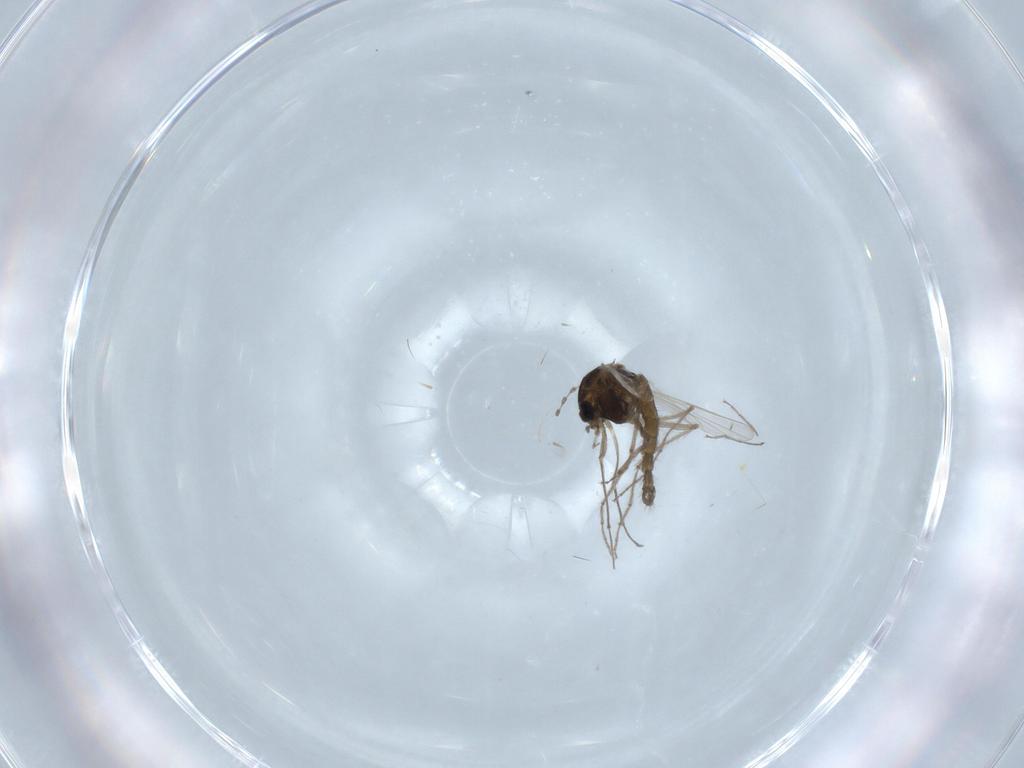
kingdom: Animalia
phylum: Arthropoda
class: Insecta
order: Diptera
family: Chironomidae
